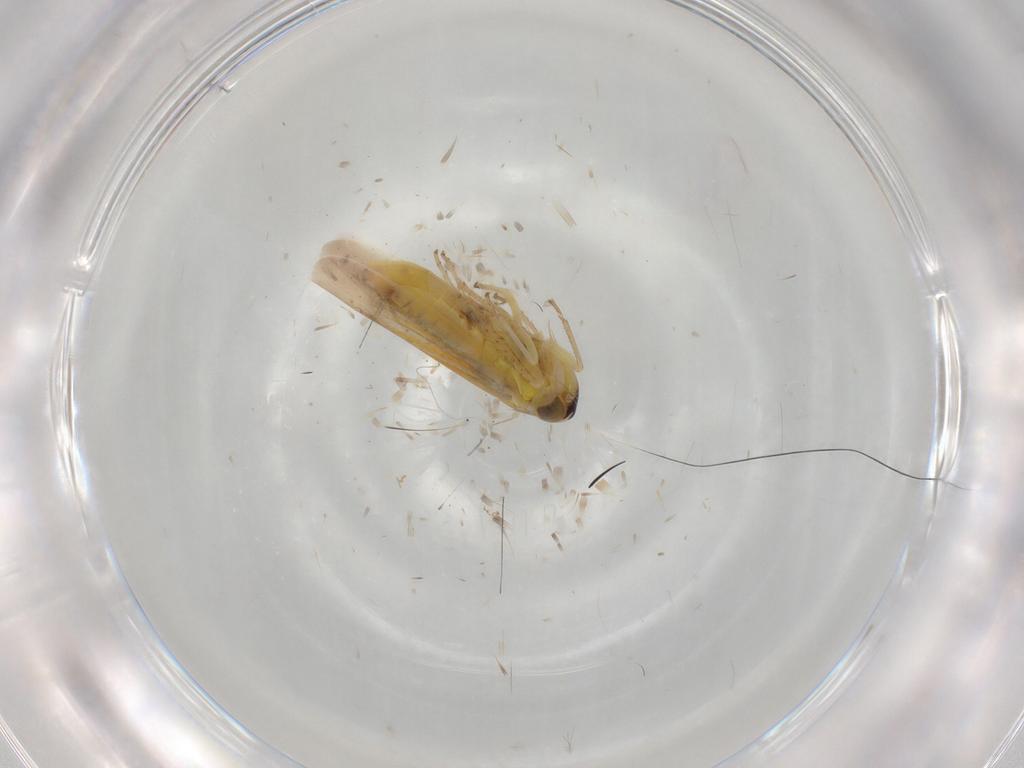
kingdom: Animalia
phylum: Arthropoda
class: Insecta
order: Hemiptera
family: Cicadellidae
